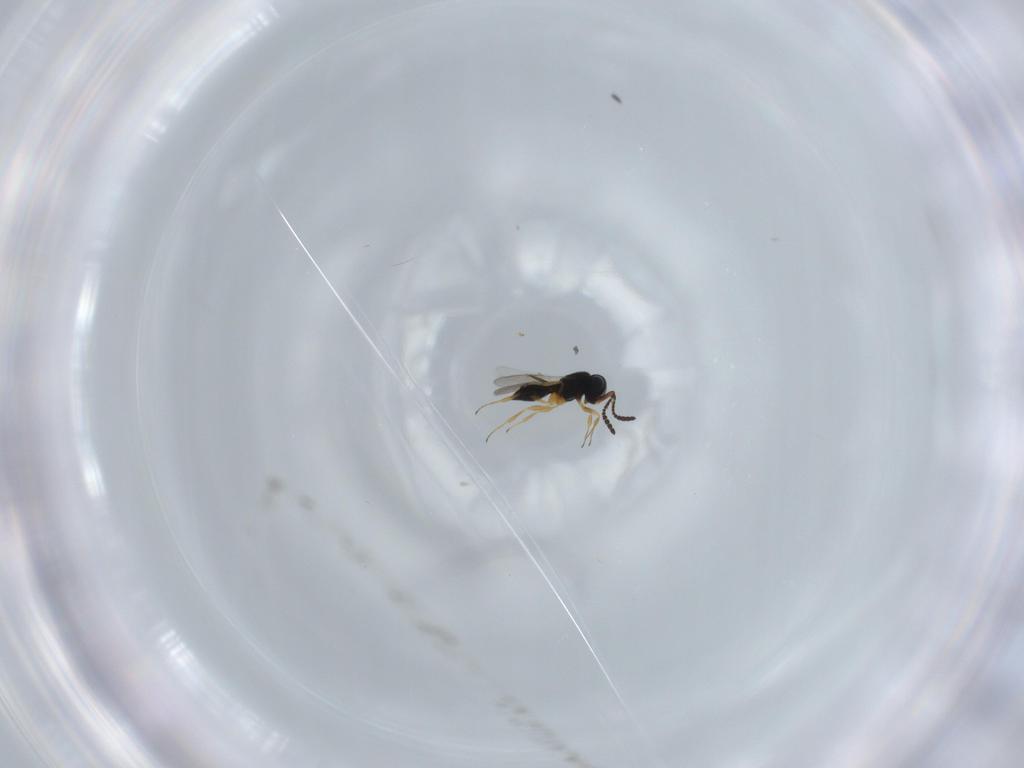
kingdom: Animalia
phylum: Arthropoda
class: Insecta
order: Hymenoptera
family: Scelionidae
